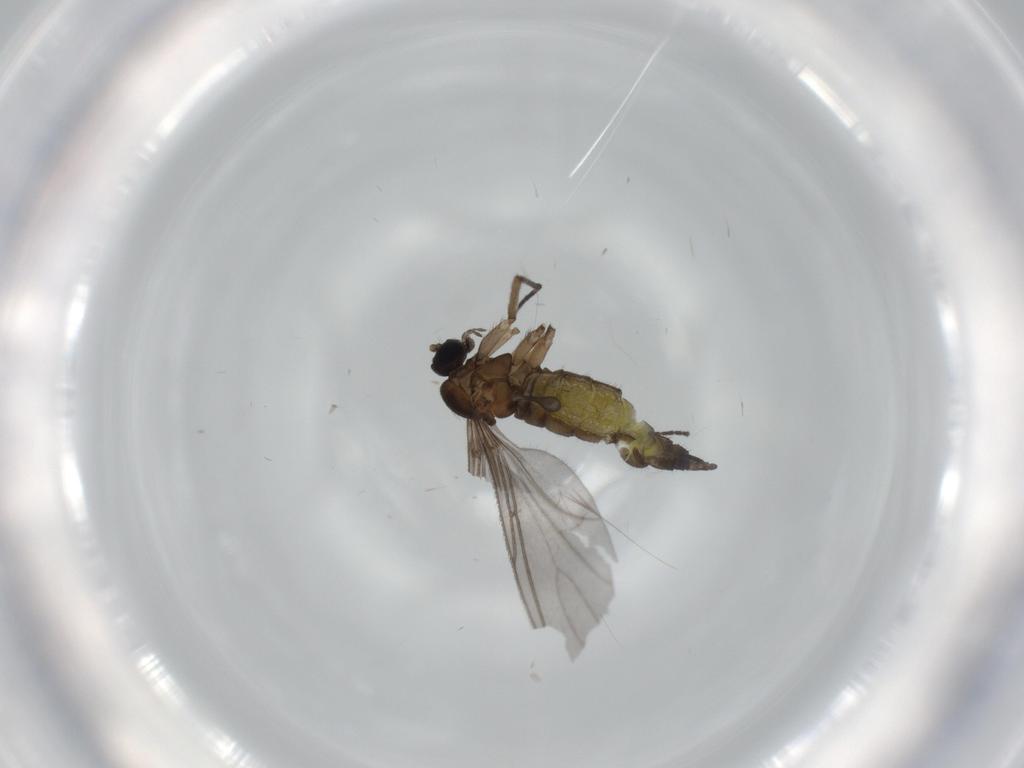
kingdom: Animalia
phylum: Arthropoda
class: Insecta
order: Diptera
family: Sciaridae
